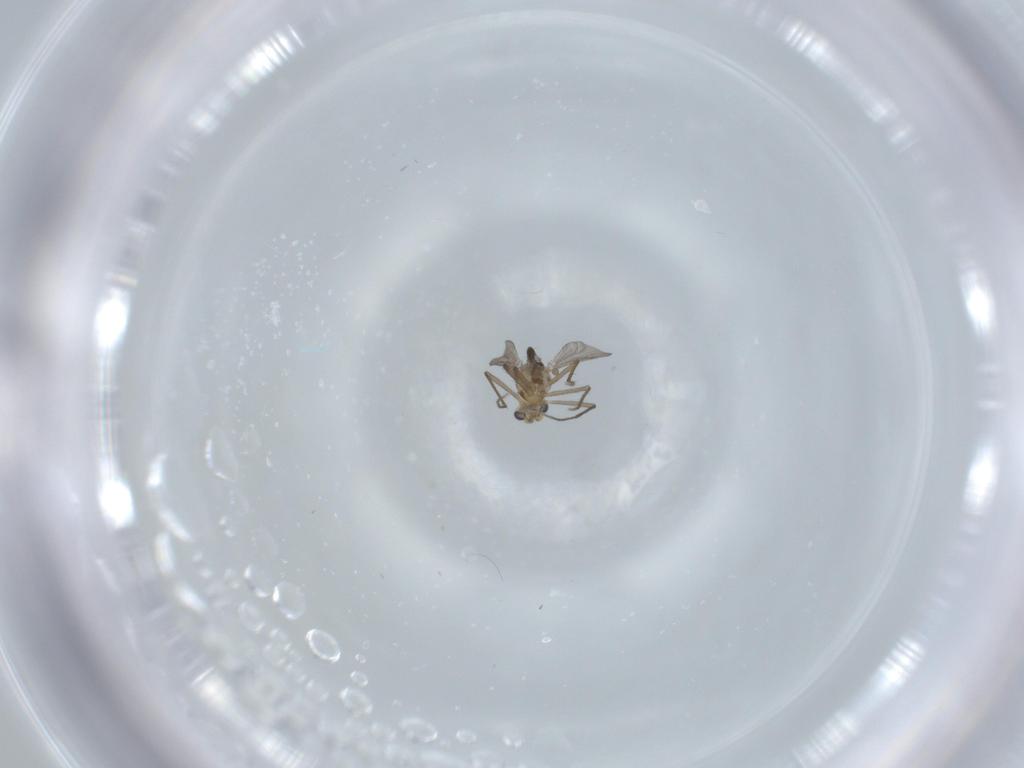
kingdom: Animalia
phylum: Arthropoda
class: Insecta
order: Diptera
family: Chironomidae
